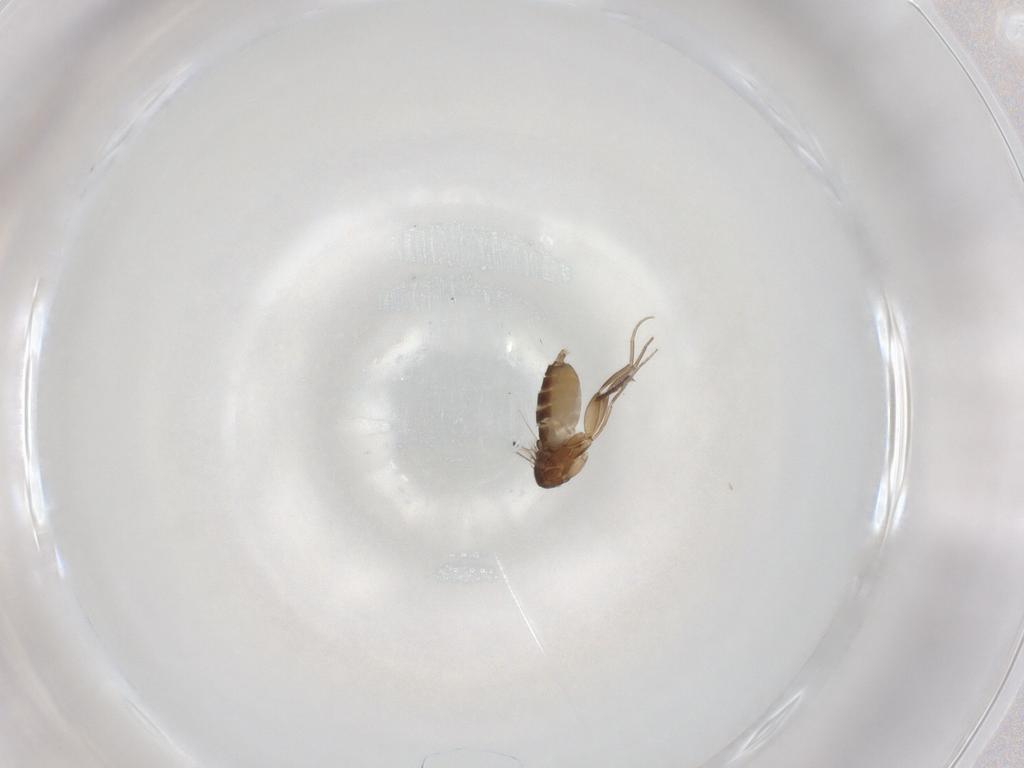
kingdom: Animalia
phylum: Arthropoda
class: Insecta
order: Diptera
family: Phoridae
